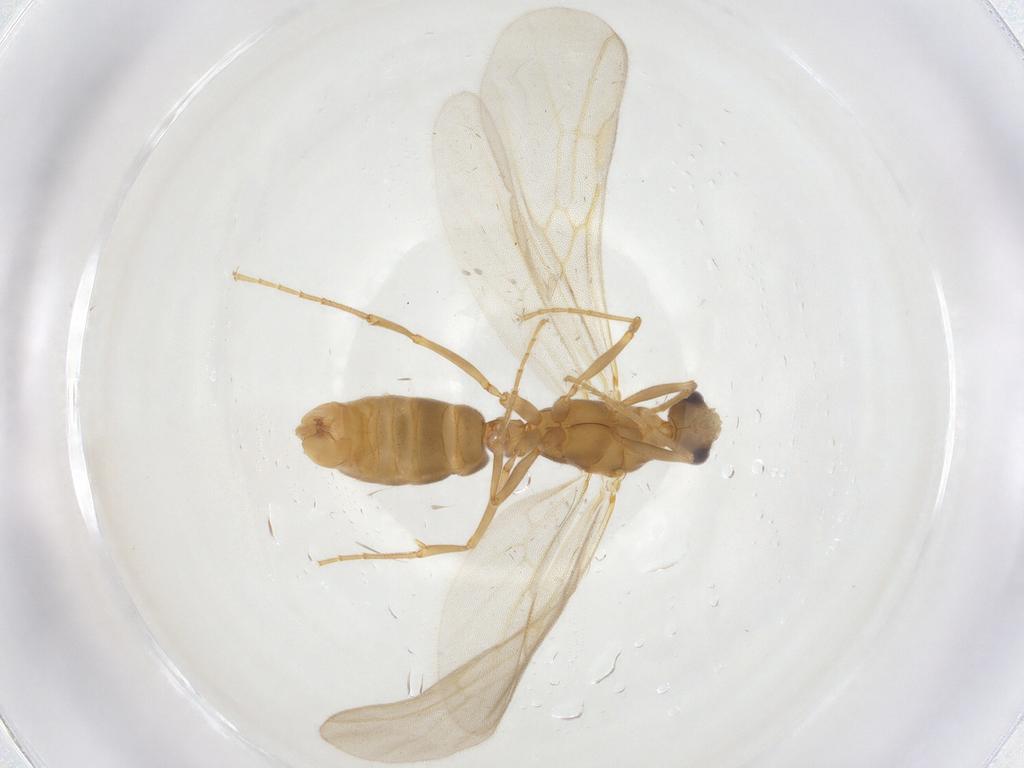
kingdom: Animalia
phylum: Arthropoda
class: Insecta
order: Hymenoptera
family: Formicidae
